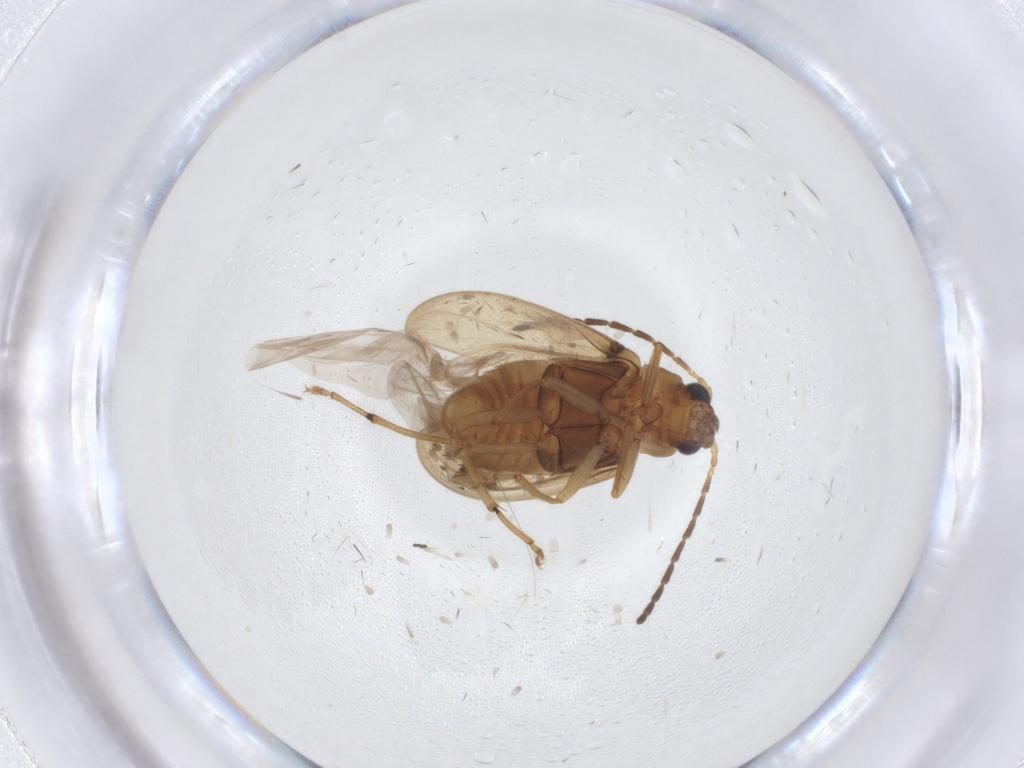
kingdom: Animalia
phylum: Arthropoda
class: Insecta
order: Coleoptera
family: Chrysomelidae
